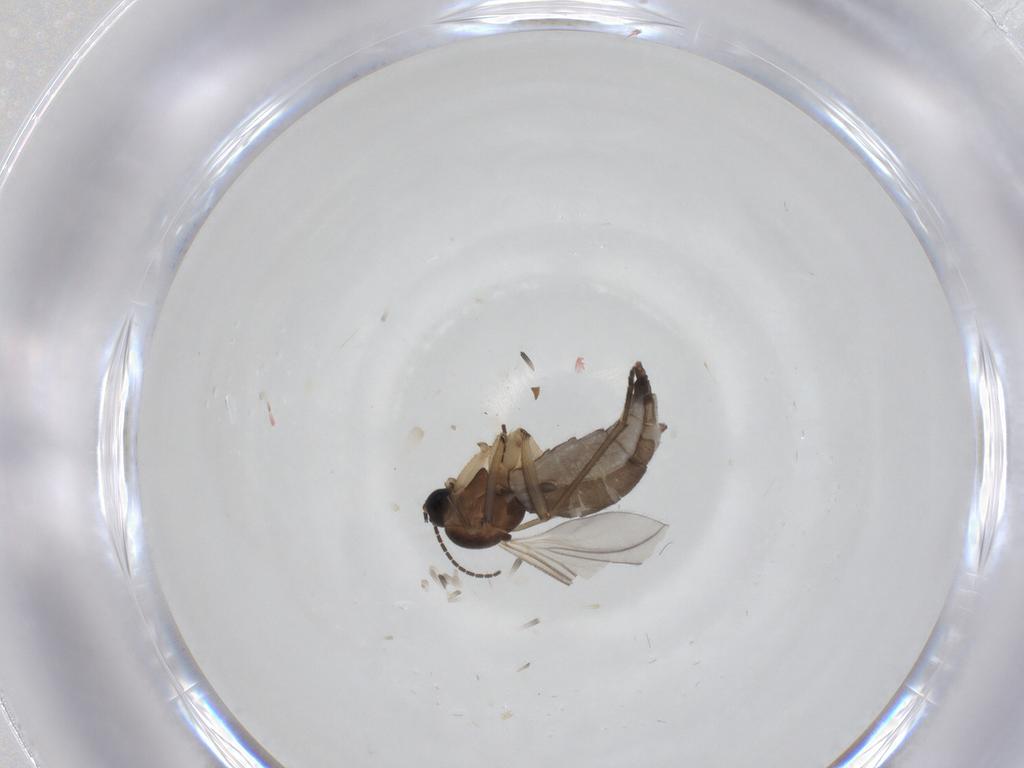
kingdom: Animalia
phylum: Arthropoda
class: Insecta
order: Diptera
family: Sciaridae
